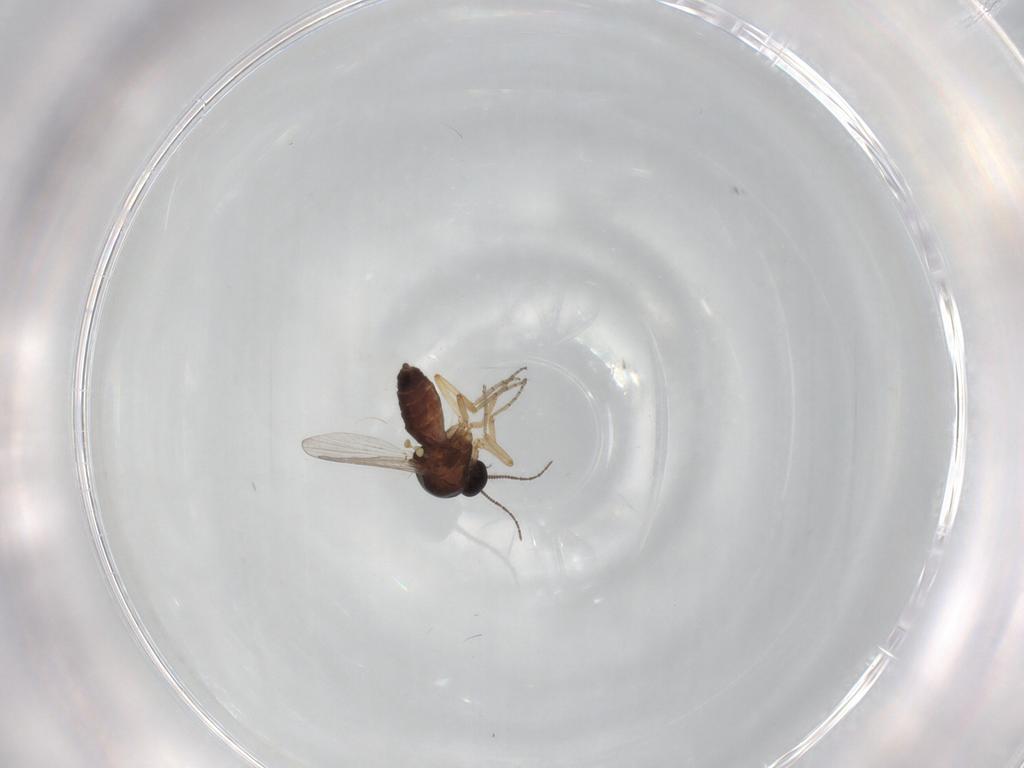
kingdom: Animalia
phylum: Arthropoda
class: Insecta
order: Diptera
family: Ceratopogonidae
